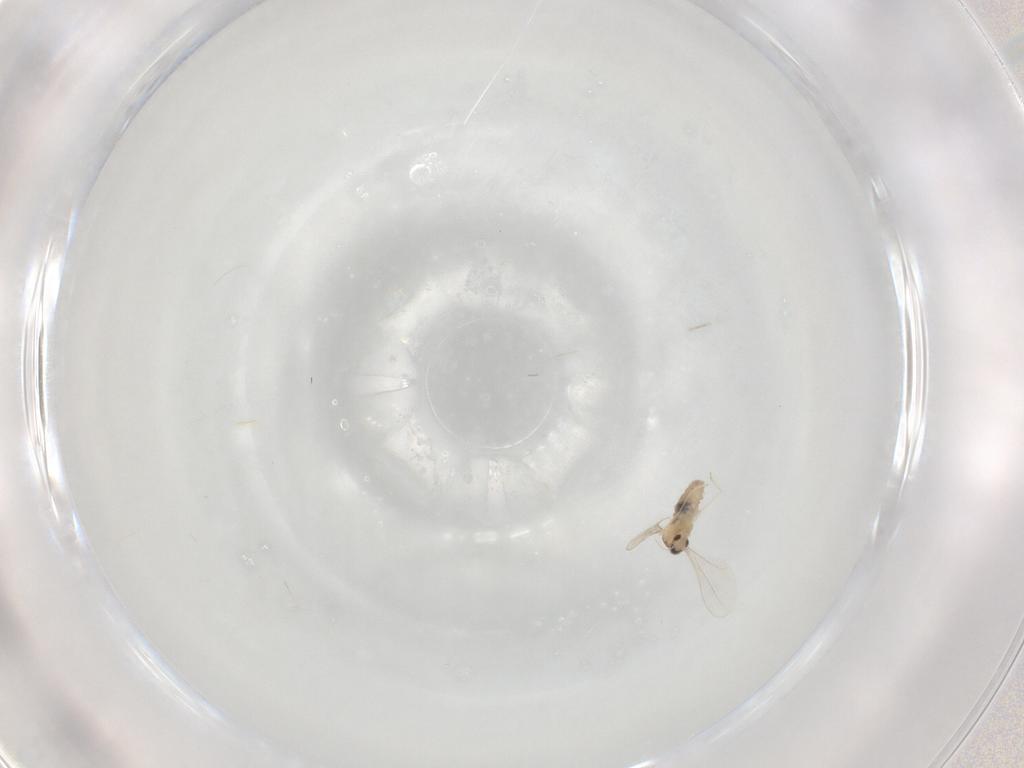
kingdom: Animalia
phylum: Arthropoda
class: Insecta
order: Diptera
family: Cecidomyiidae
